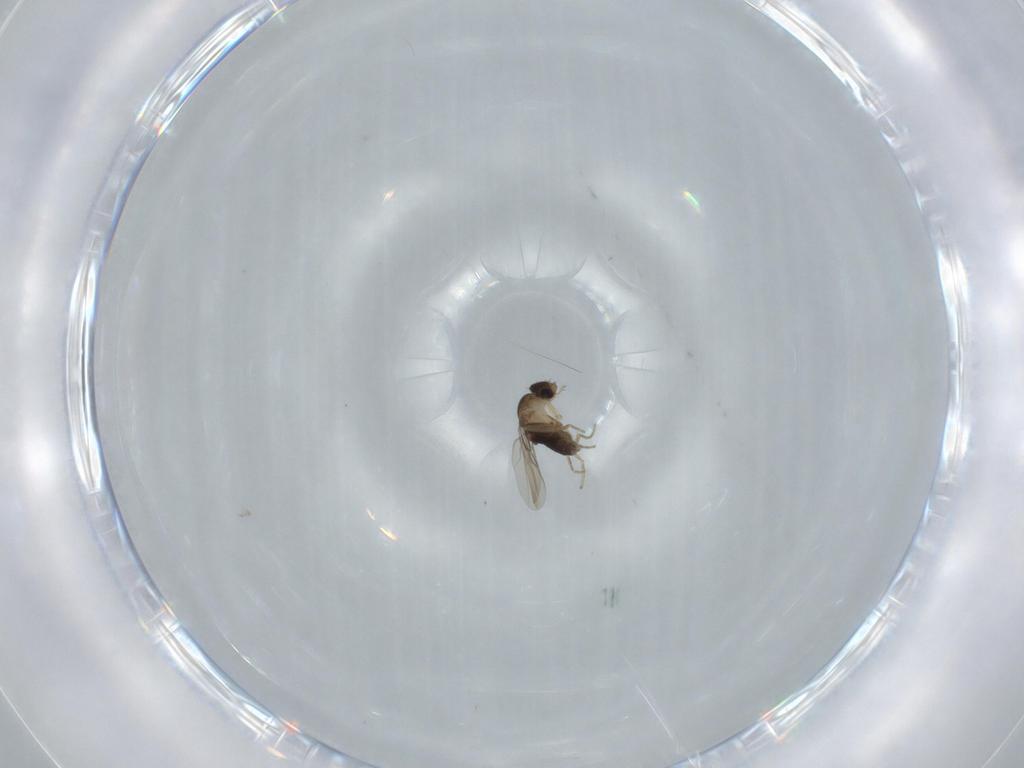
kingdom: Animalia
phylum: Arthropoda
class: Insecta
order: Diptera
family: Phoridae
